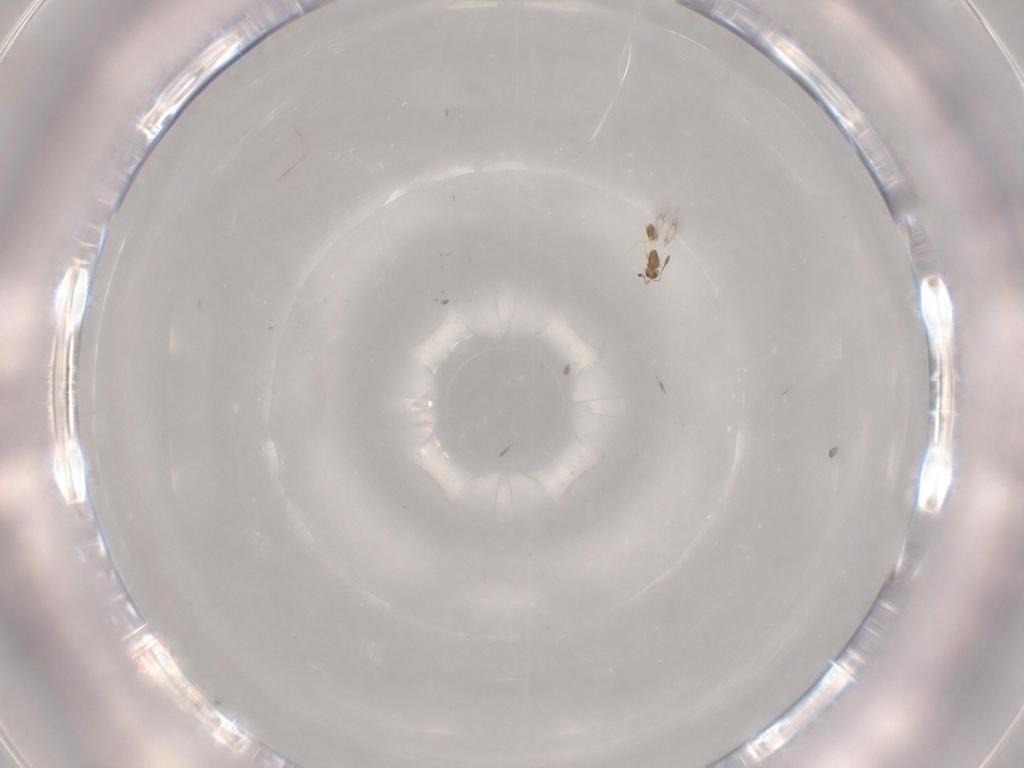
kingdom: Animalia
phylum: Arthropoda
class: Insecta
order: Hymenoptera
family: Mymarommatidae
